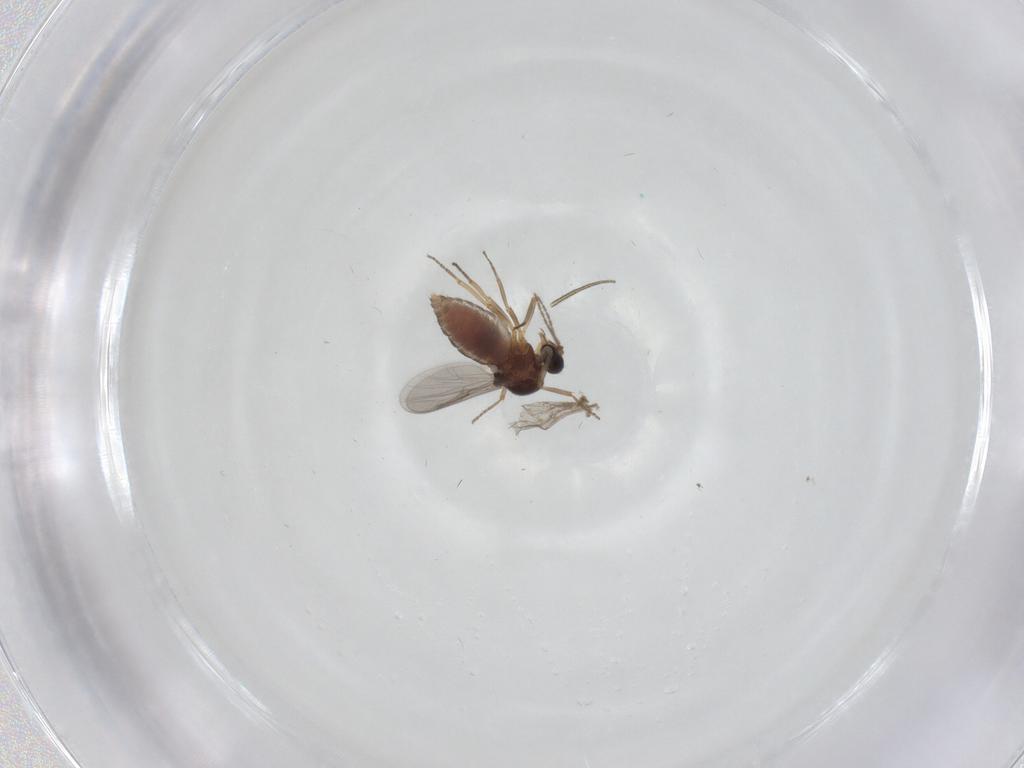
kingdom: Animalia
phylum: Arthropoda
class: Insecta
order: Diptera
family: Ceratopogonidae
